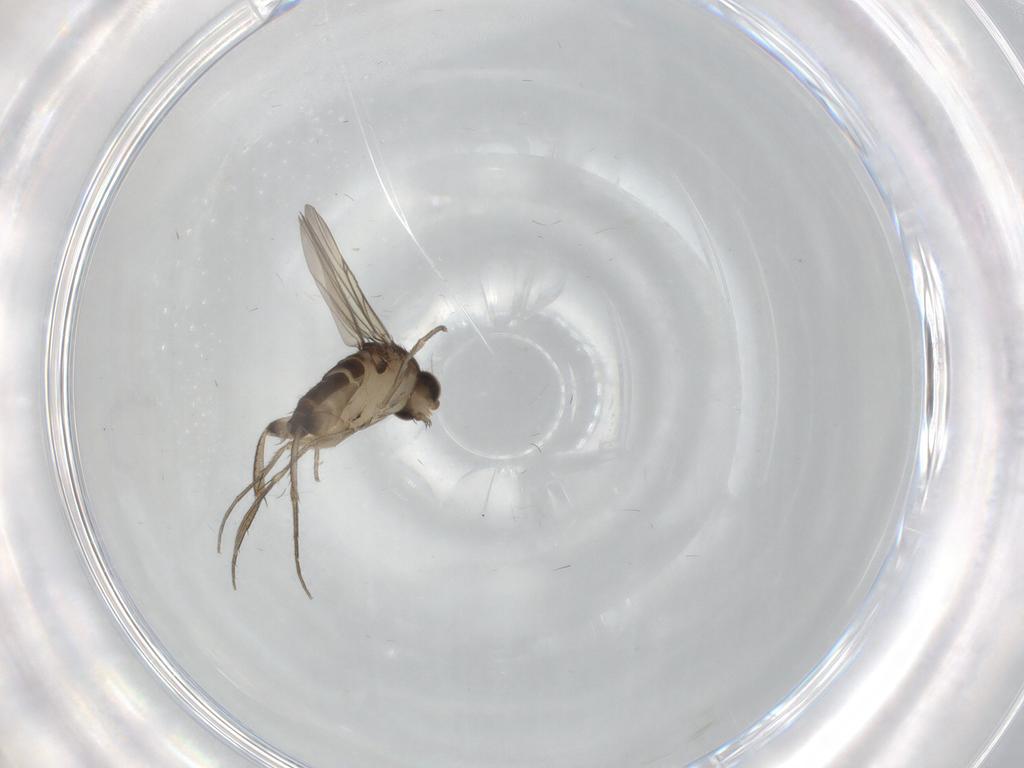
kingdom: Animalia
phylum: Arthropoda
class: Insecta
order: Diptera
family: Phoridae
